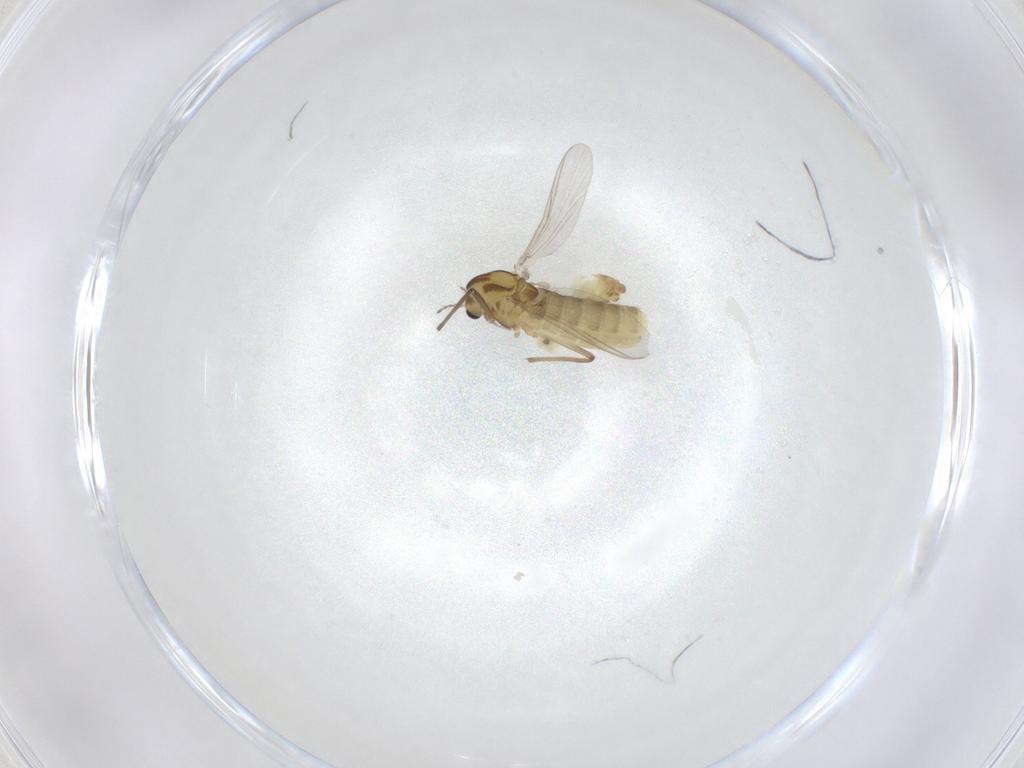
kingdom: Animalia
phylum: Arthropoda
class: Insecta
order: Diptera
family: Chironomidae
